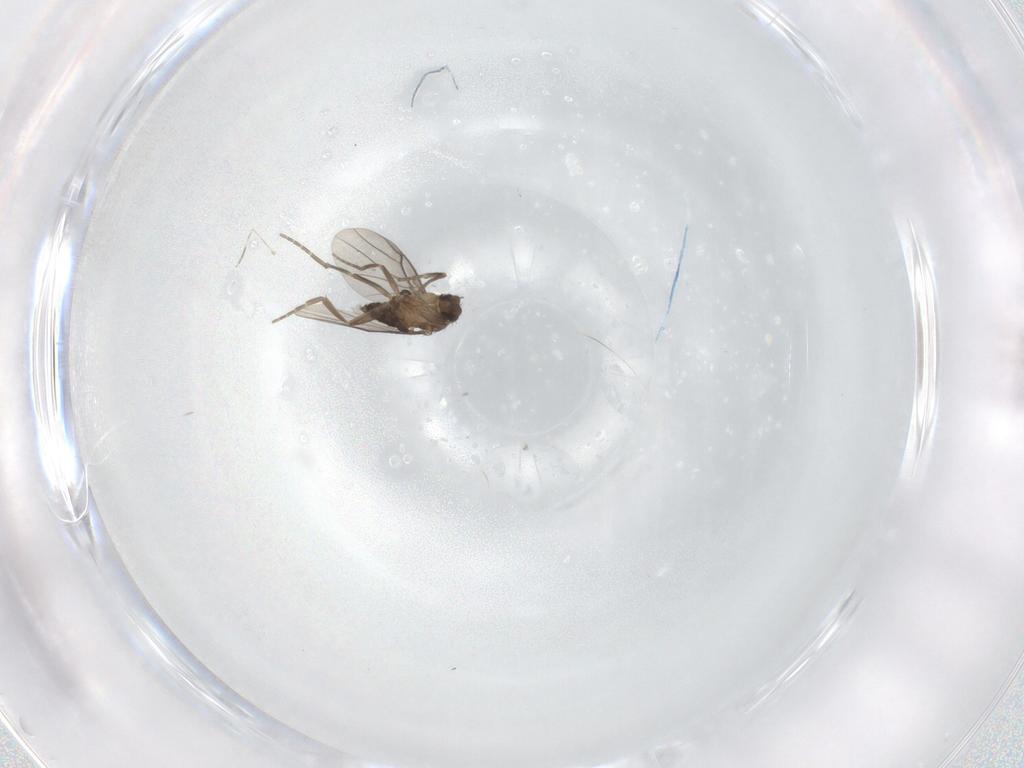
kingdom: Animalia
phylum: Arthropoda
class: Insecta
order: Diptera
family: Cecidomyiidae
